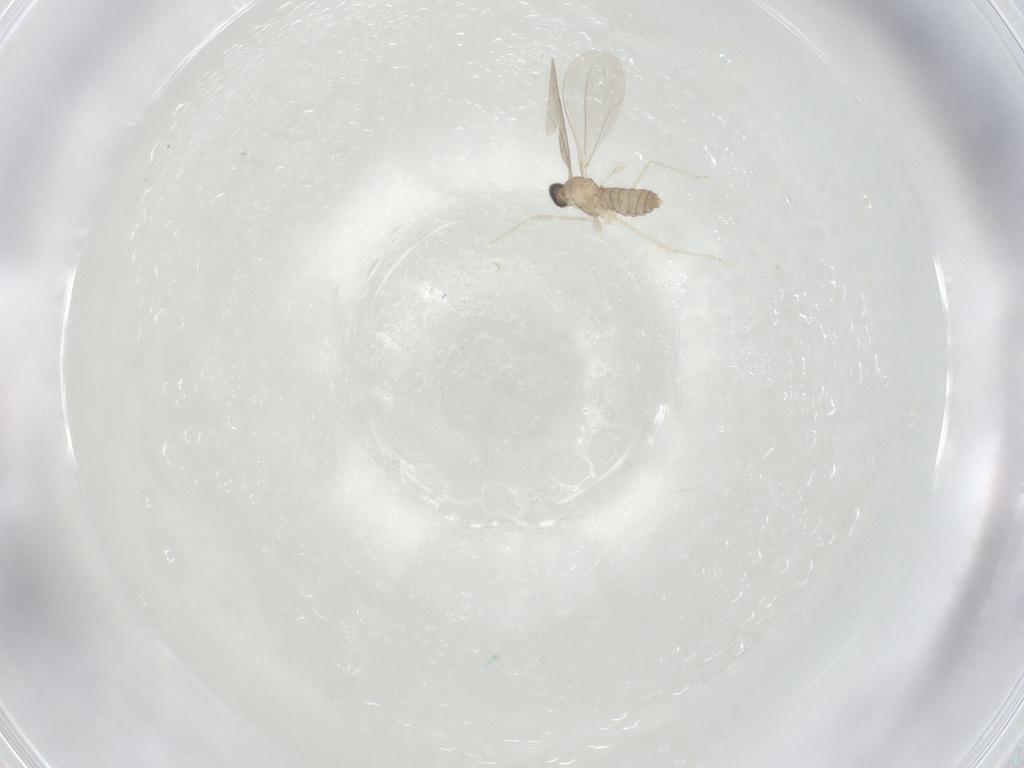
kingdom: Animalia
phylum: Arthropoda
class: Insecta
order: Diptera
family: Cecidomyiidae
